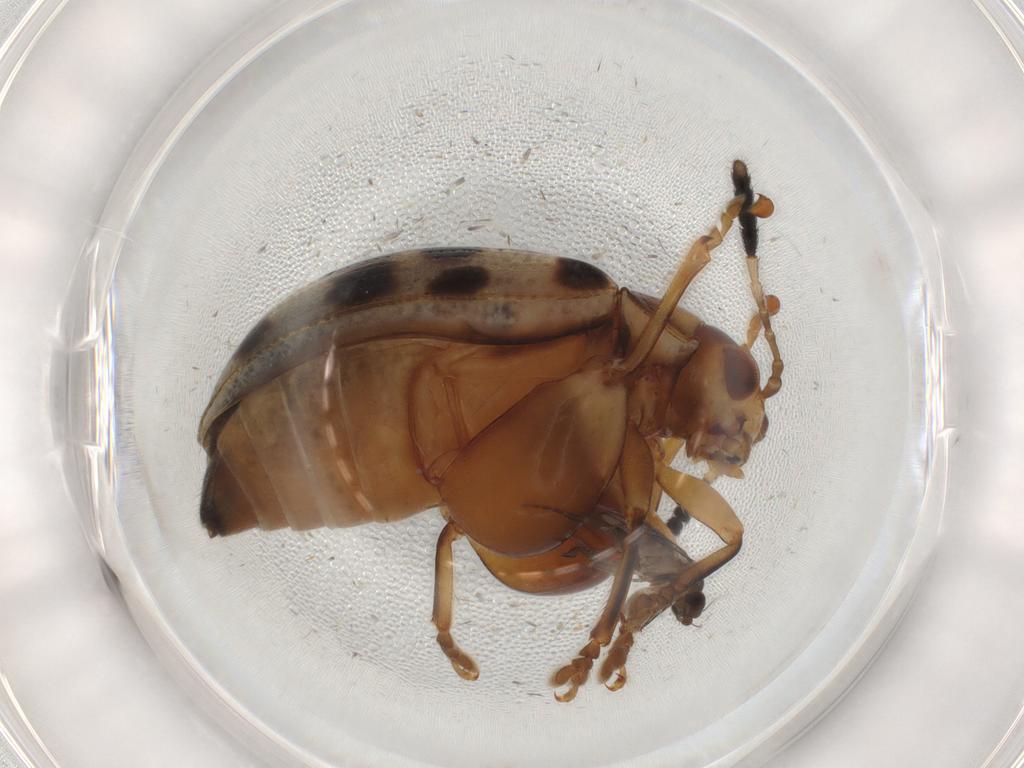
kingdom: Animalia
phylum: Arthropoda
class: Insecta
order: Coleoptera
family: Chrysomelidae
